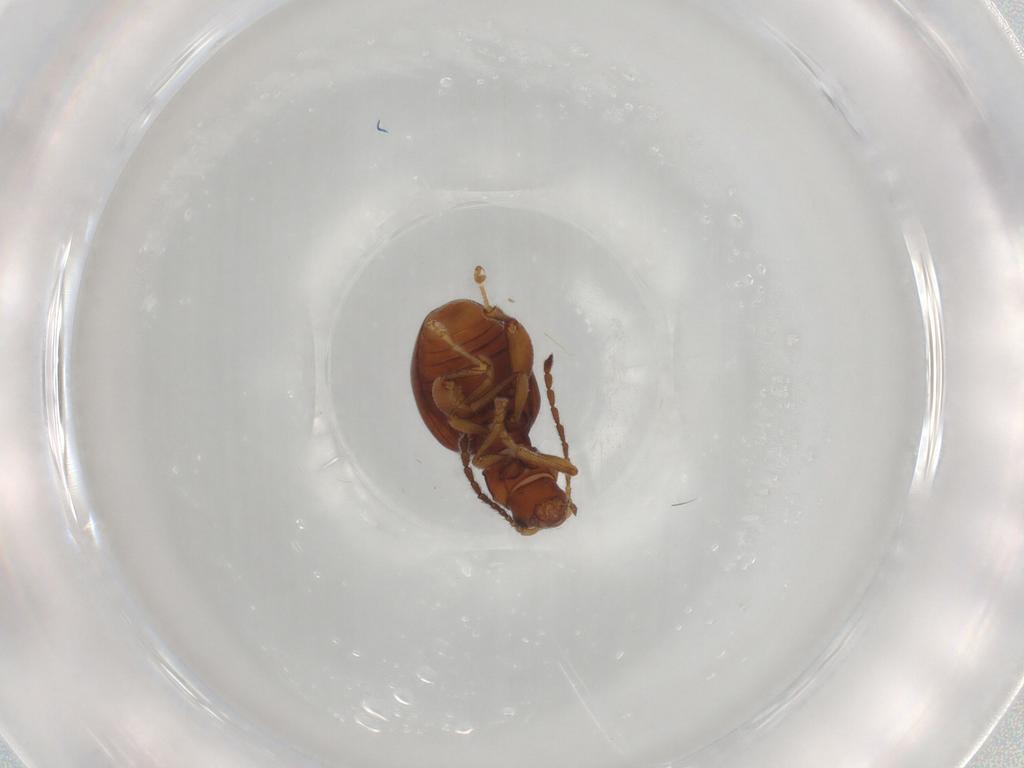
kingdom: Animalia
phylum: Arthropoda
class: Insecta
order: Coleoptera
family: Chrysomelidae
